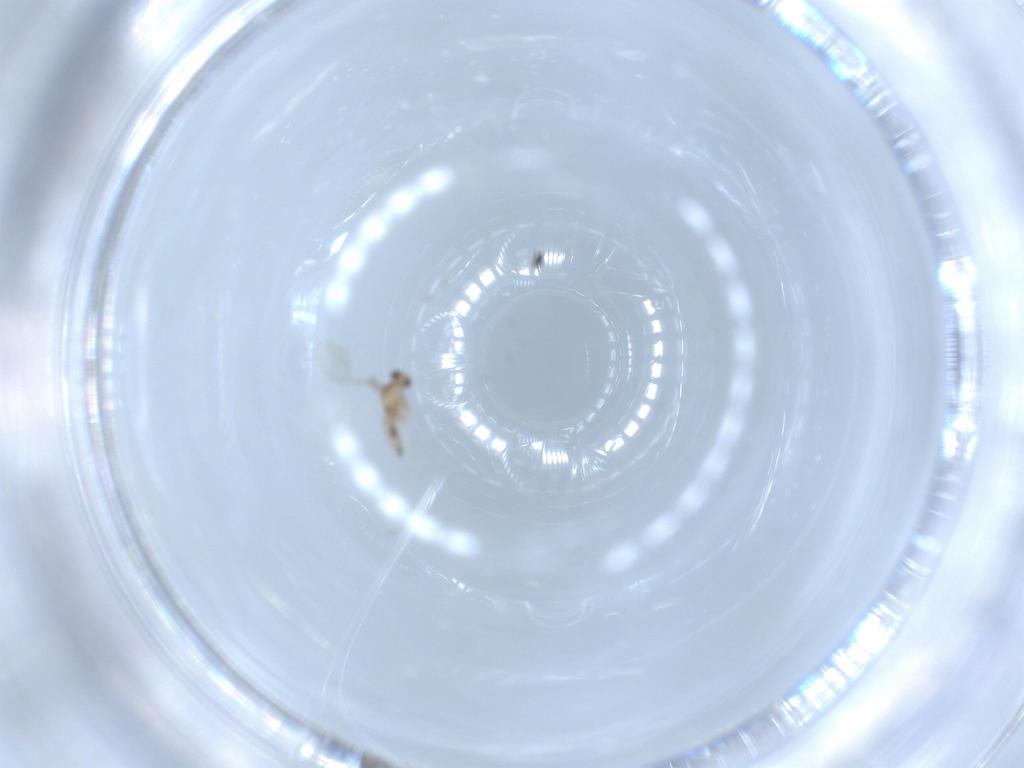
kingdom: Animalia
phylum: Arthropoda
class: Insecta
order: Diptera
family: Cecidomyiidae
